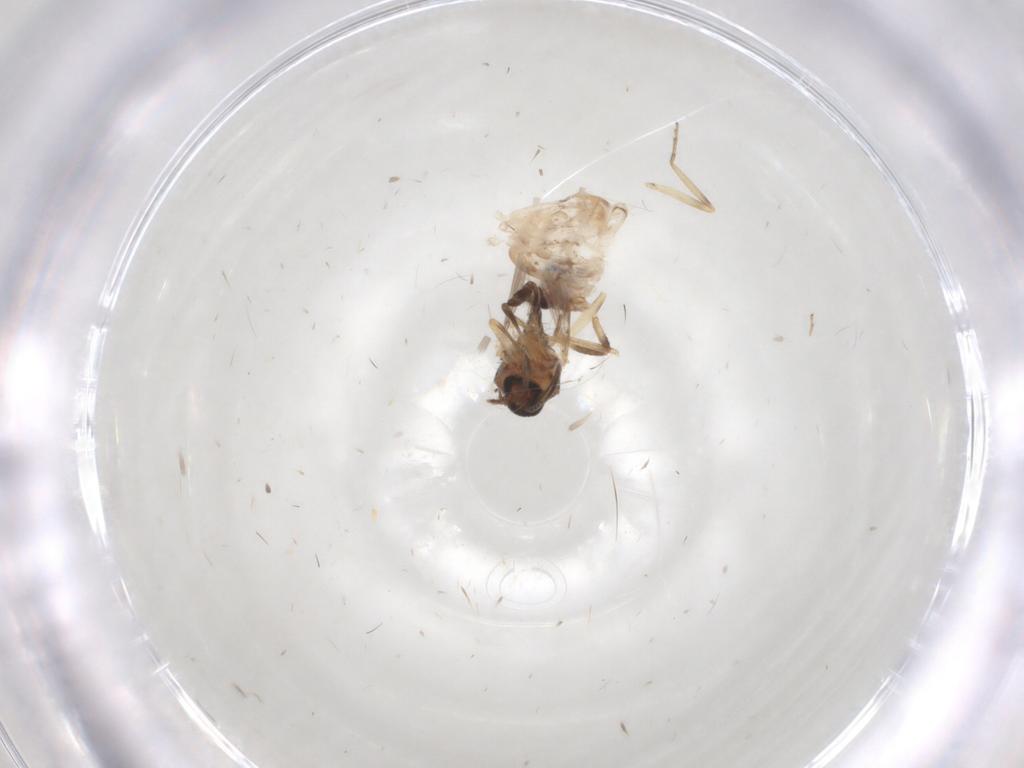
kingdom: Animalia
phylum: Arthropoda
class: Insecta
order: Diptera
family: Ceratopogonidae
